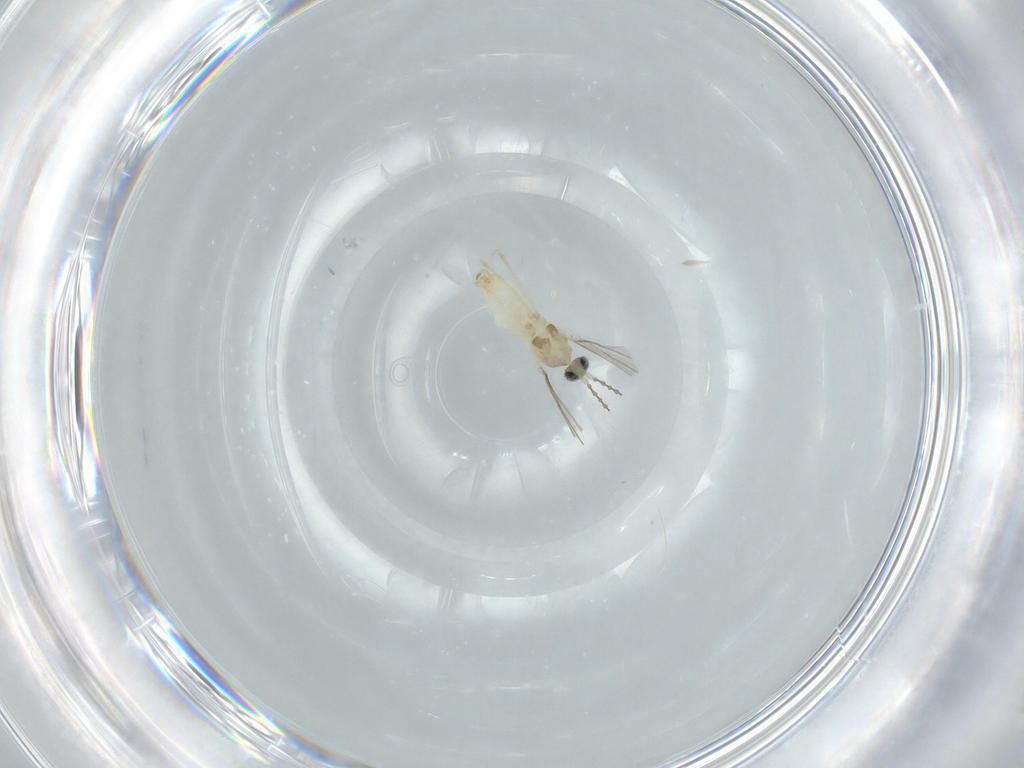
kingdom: Animalia
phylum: Arthropoda
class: Insecta
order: Diptera
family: Cecidomyiidae
